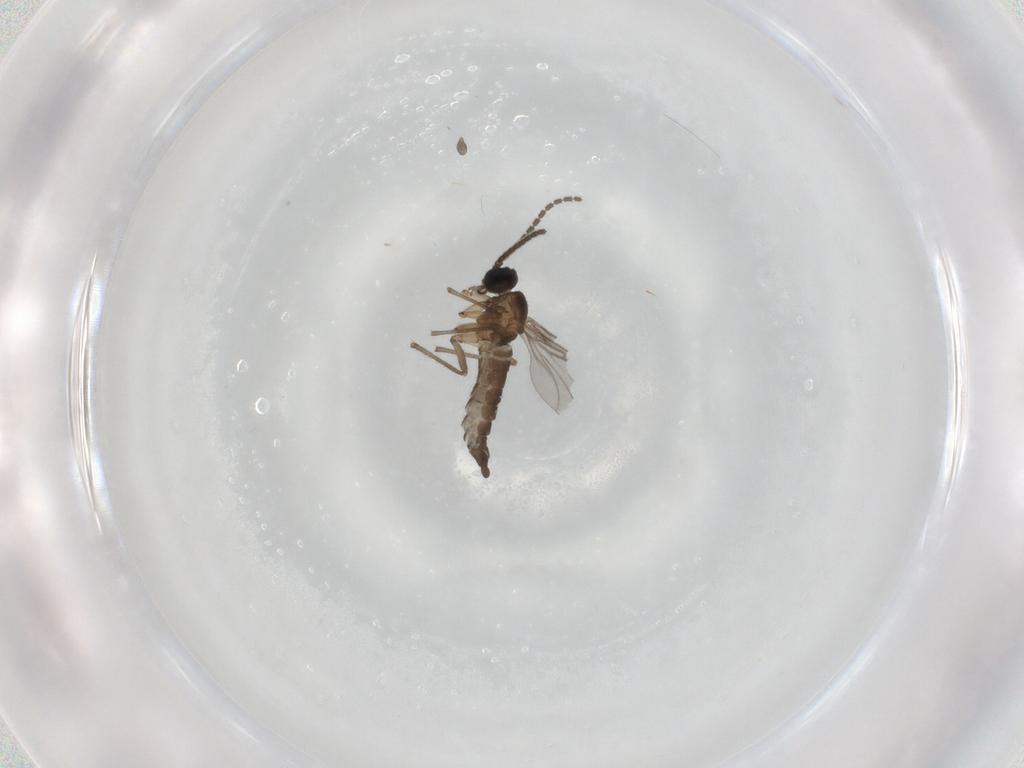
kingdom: Animalia
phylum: Arthropoda
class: Insecta
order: Diptera
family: Sciaridae
